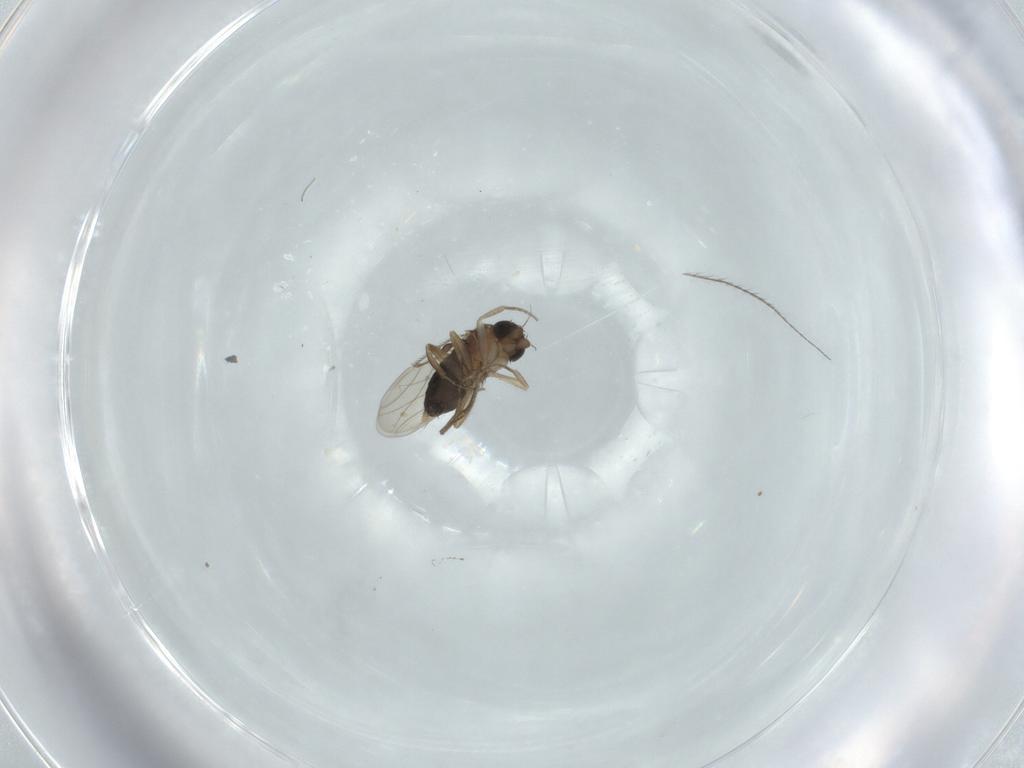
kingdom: Animalia
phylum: Arthropoda
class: Insecta
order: Diptera
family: Phoridae
